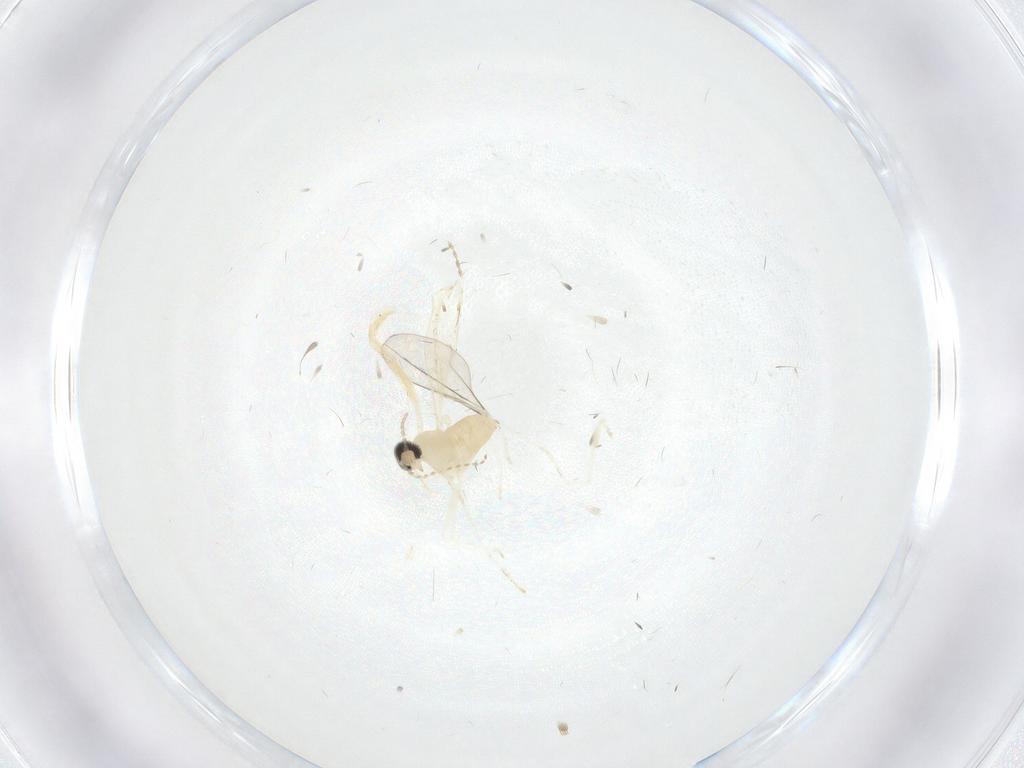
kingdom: Animalia
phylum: Arthropoda
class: Insecta
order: Diptera
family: Cecidomyiidae
